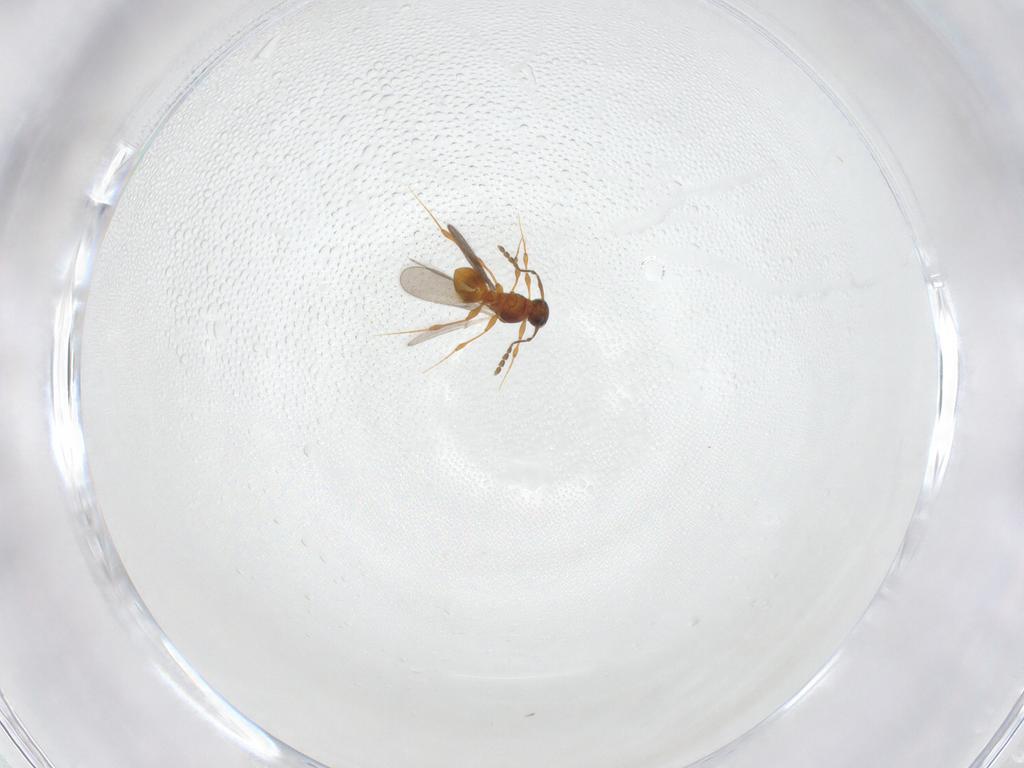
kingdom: Animalia
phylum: Arthropoda
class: Insecta
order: Hymenoptera
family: Platygastridae
